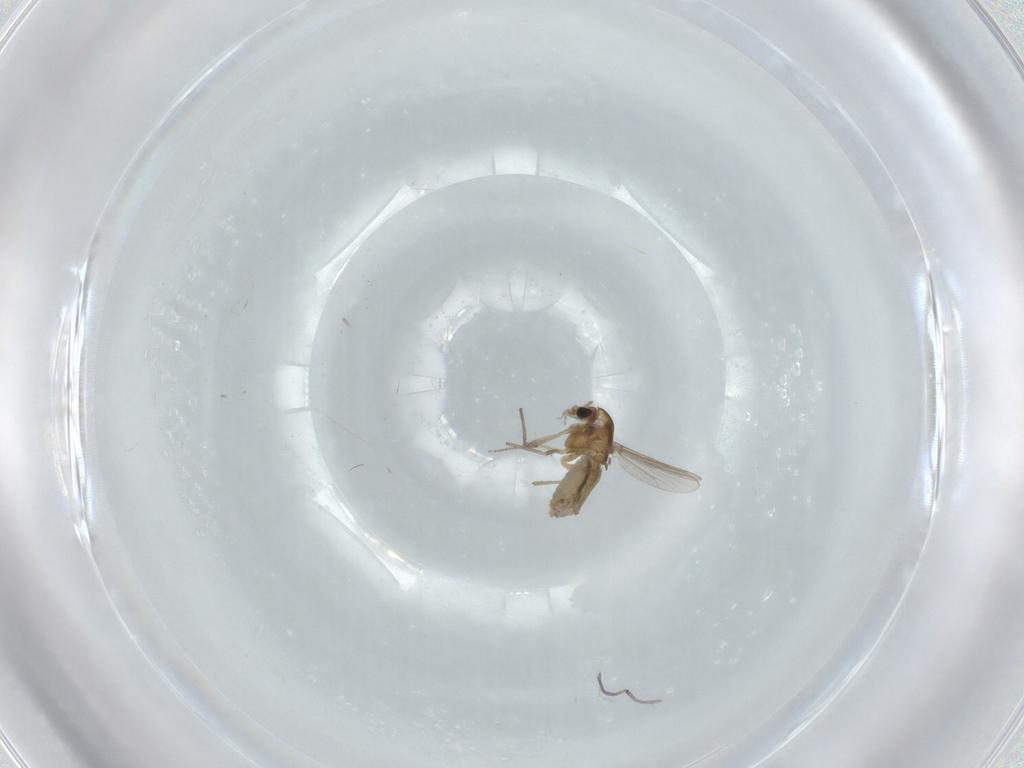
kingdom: Animalia
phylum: Arthropoda
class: Insecta
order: Diptera
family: Chironomidae
